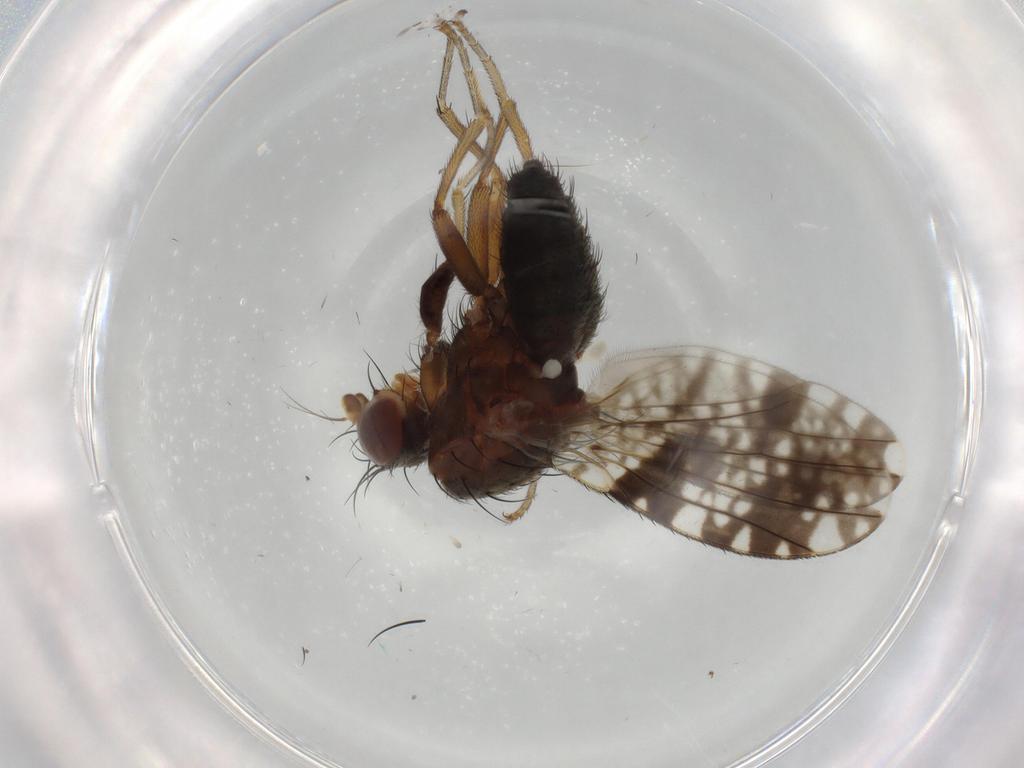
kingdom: Animalia
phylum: Arthropoda
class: Insecta
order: Diptera
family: Tephritidae
